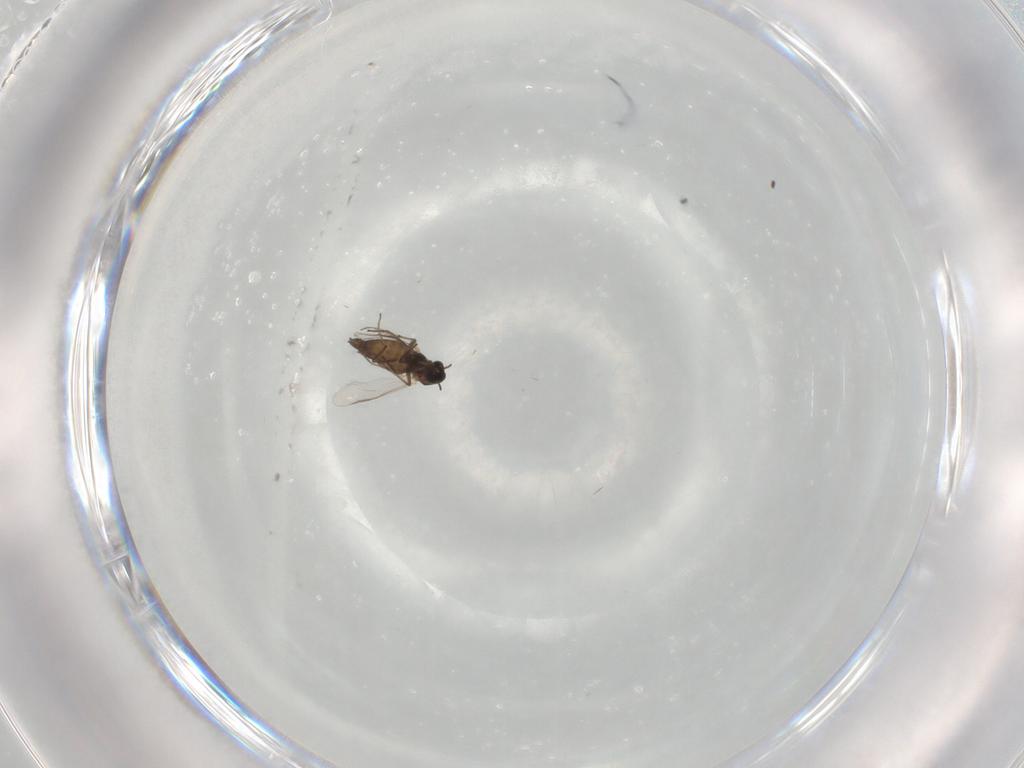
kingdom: Animalia
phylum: Arthropoda
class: Insecta
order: Diptera
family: Chironomidae
